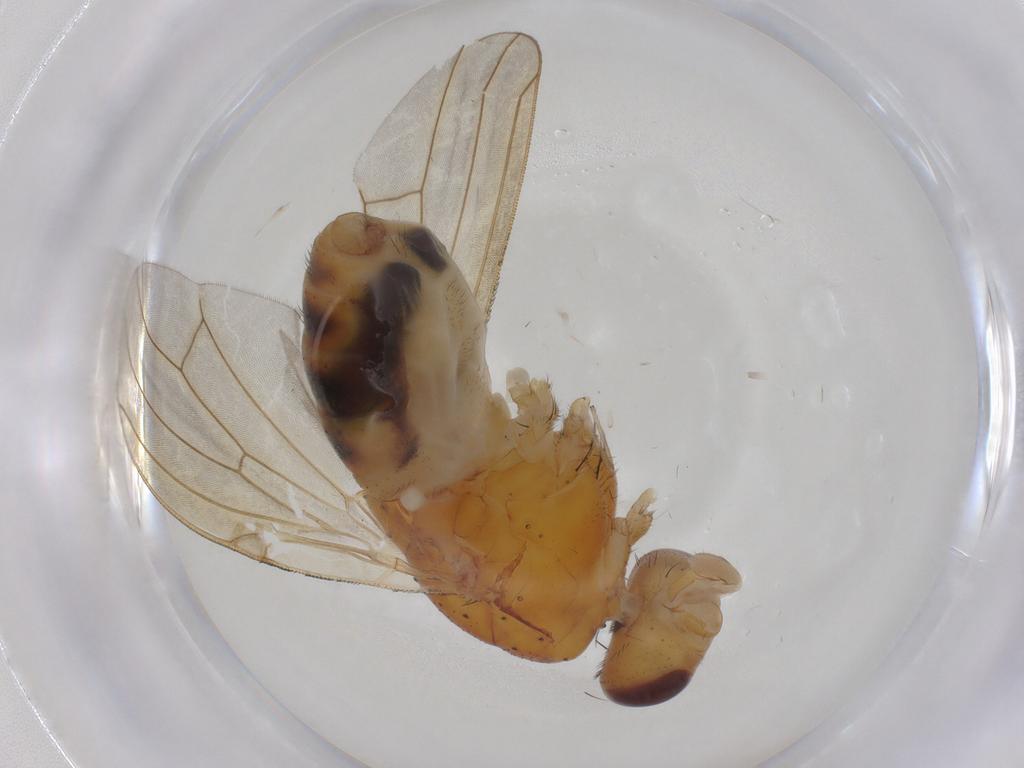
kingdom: Animalia
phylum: Arthropoda
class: Insecta
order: Diptera
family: Chironomidae
